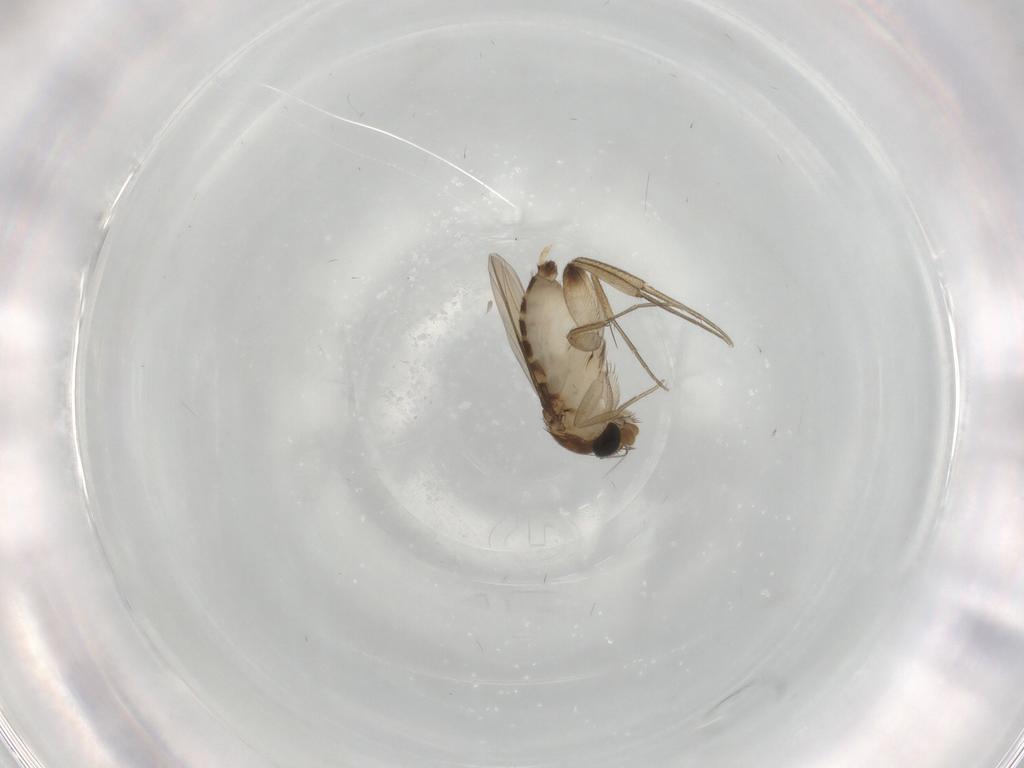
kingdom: Animalia
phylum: Arthropoda
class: Insecta
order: Diptera
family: Phoridae
